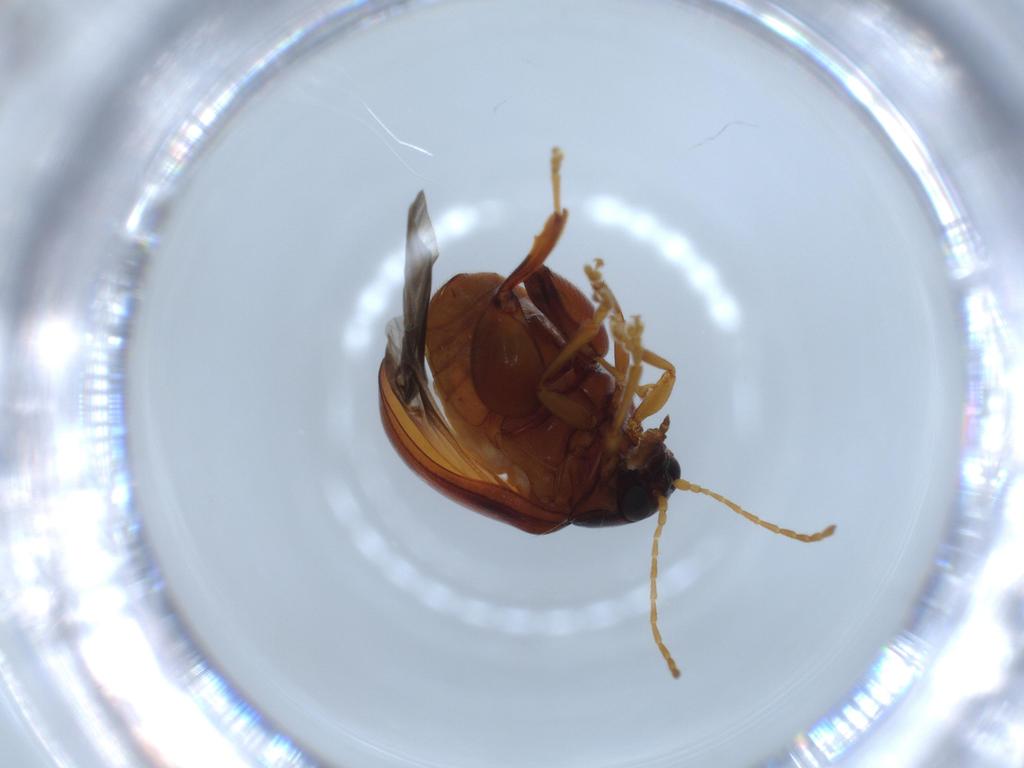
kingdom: Animalia
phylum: Arthropoda
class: Insecta
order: Coleoptera
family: Chrysomelidae
